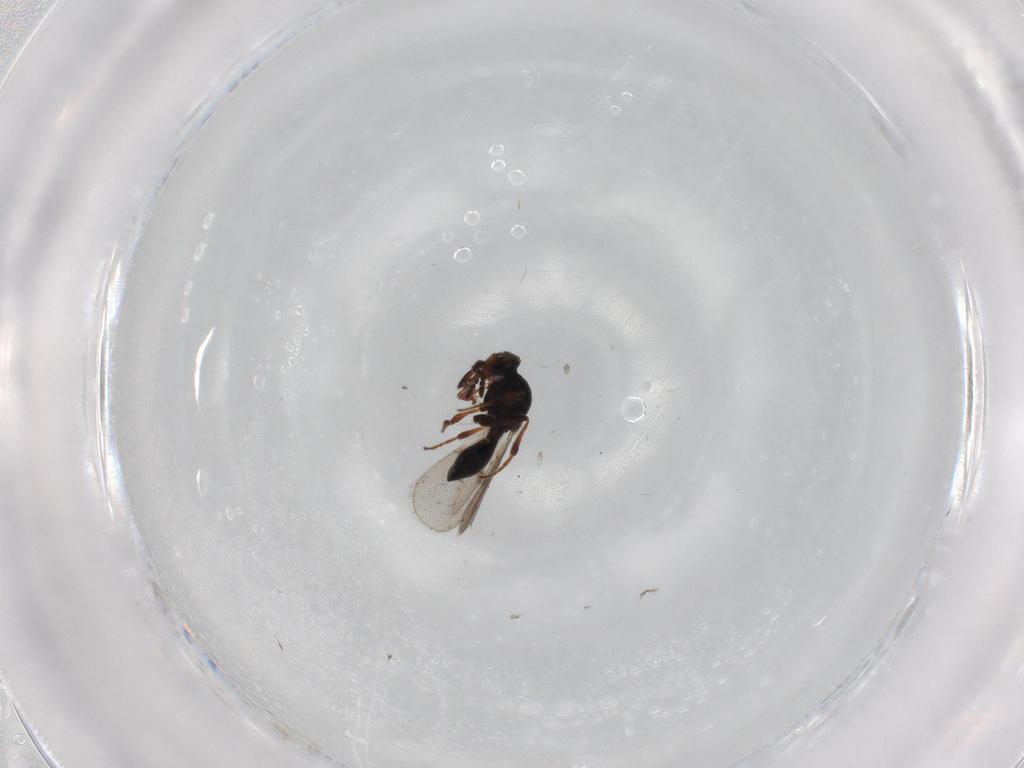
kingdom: Animalia
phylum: Arthropoda
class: Insecta
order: Hymenoptera
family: Platygastridae
